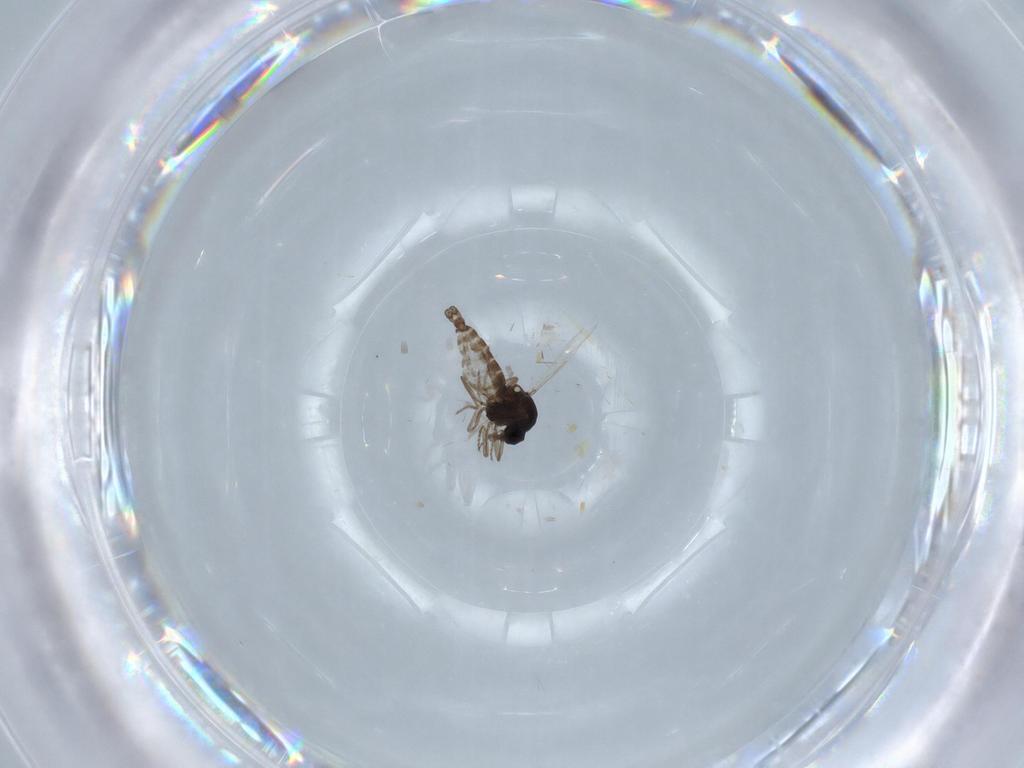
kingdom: Animalia
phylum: Arthropoda
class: Insecta
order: Diptera
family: Ceratopogonidae
